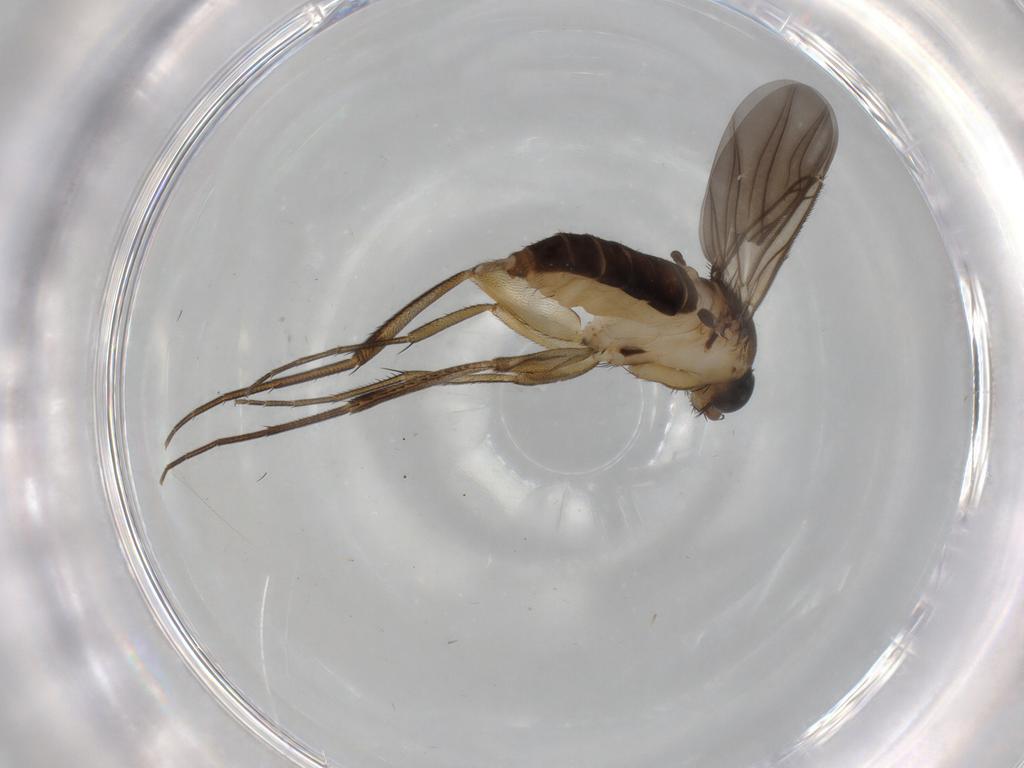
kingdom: Animalia
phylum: Arthropoda
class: Insecta
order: Diptera
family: Phoridae
